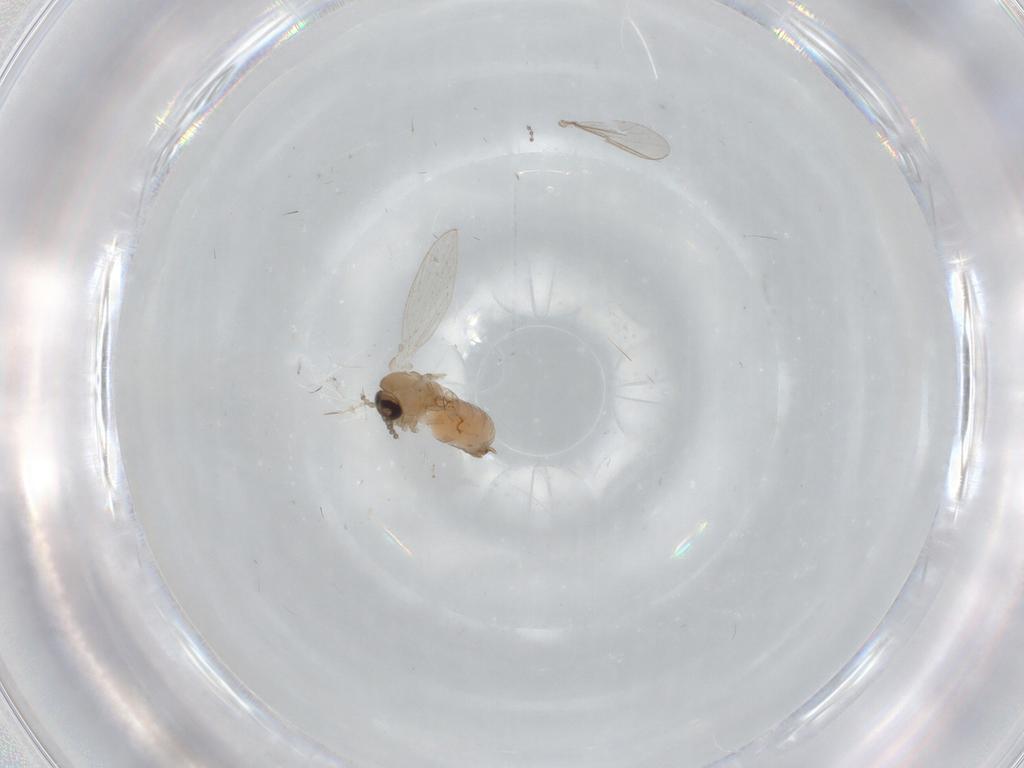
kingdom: Animalia
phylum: Arthropoda
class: Insecta
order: Diptera
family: Psychodidae
